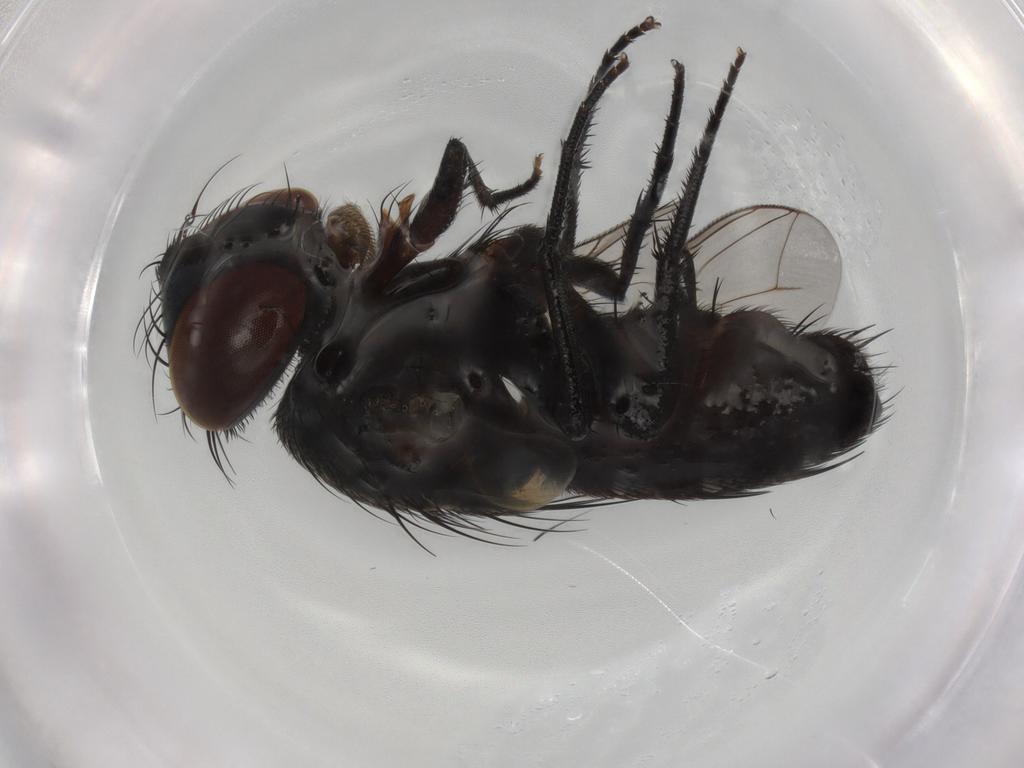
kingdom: Animalia
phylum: Arthropoda
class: Insecta
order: Diptera
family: Sarcophagidae
